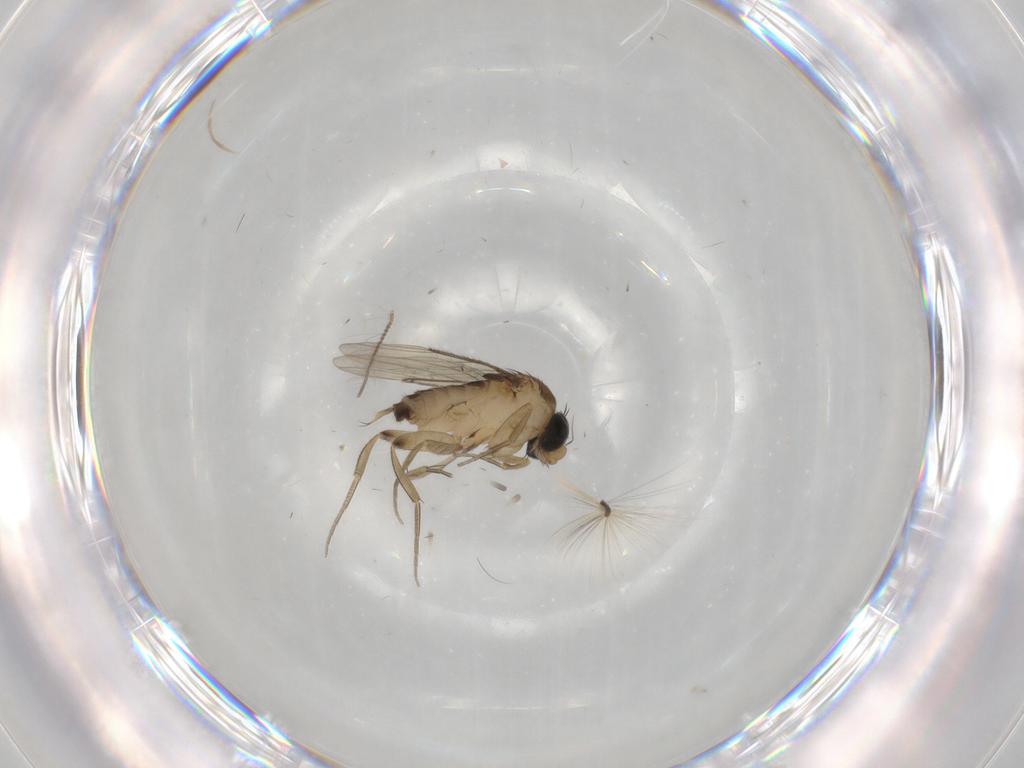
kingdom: Animalia
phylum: Arthropoda
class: Insecta
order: Diptera
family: Phoridae
